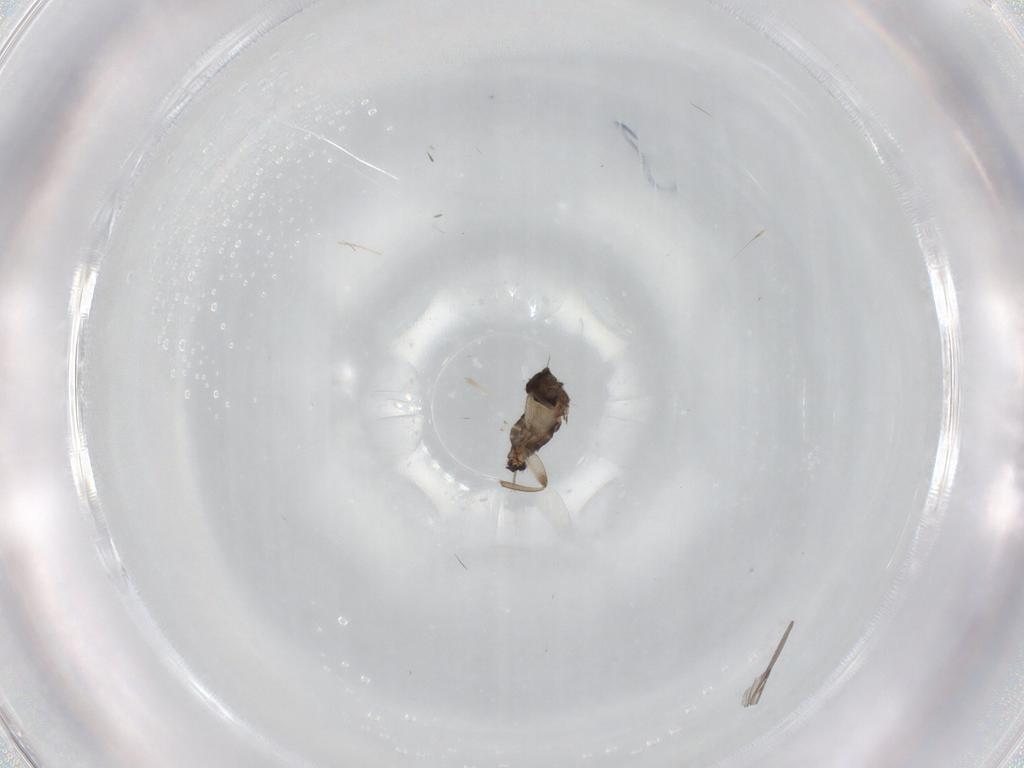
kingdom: Animalia
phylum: Arthropoda
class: Insecta
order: Diptera
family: Phoridae
